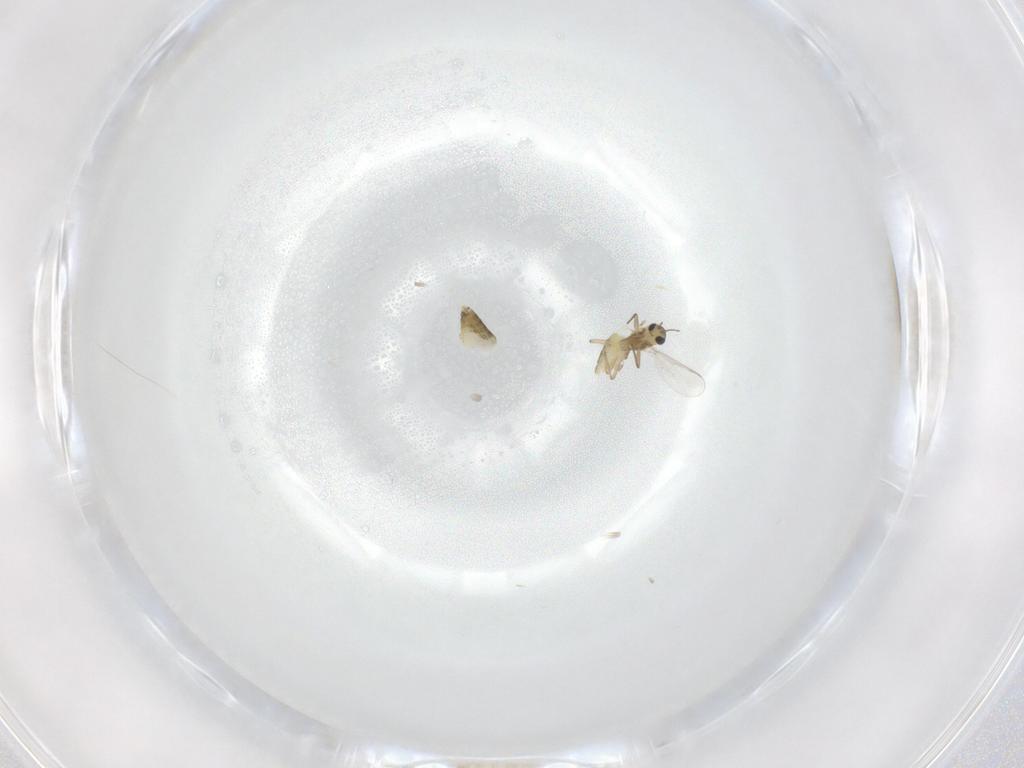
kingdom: Animalia
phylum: Arthropoda
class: Insecta
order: Diptera
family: Chironomidae
